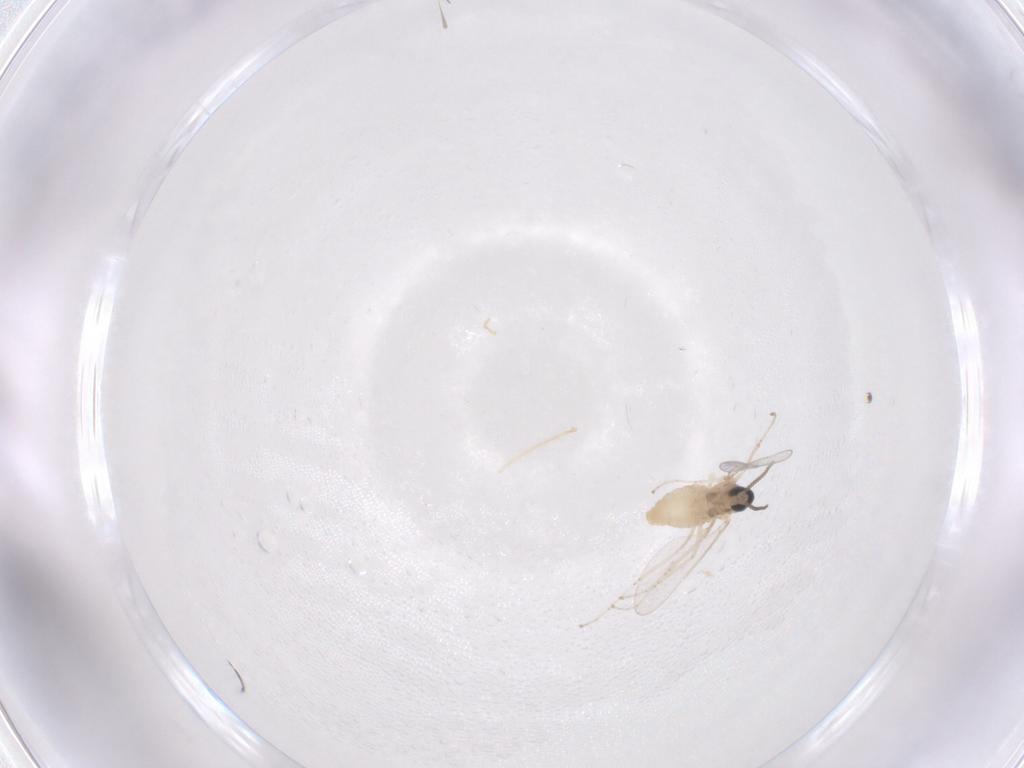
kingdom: Animalia
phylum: Arthropoda
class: Insecta
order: Diptera
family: Cecidomyiidae
